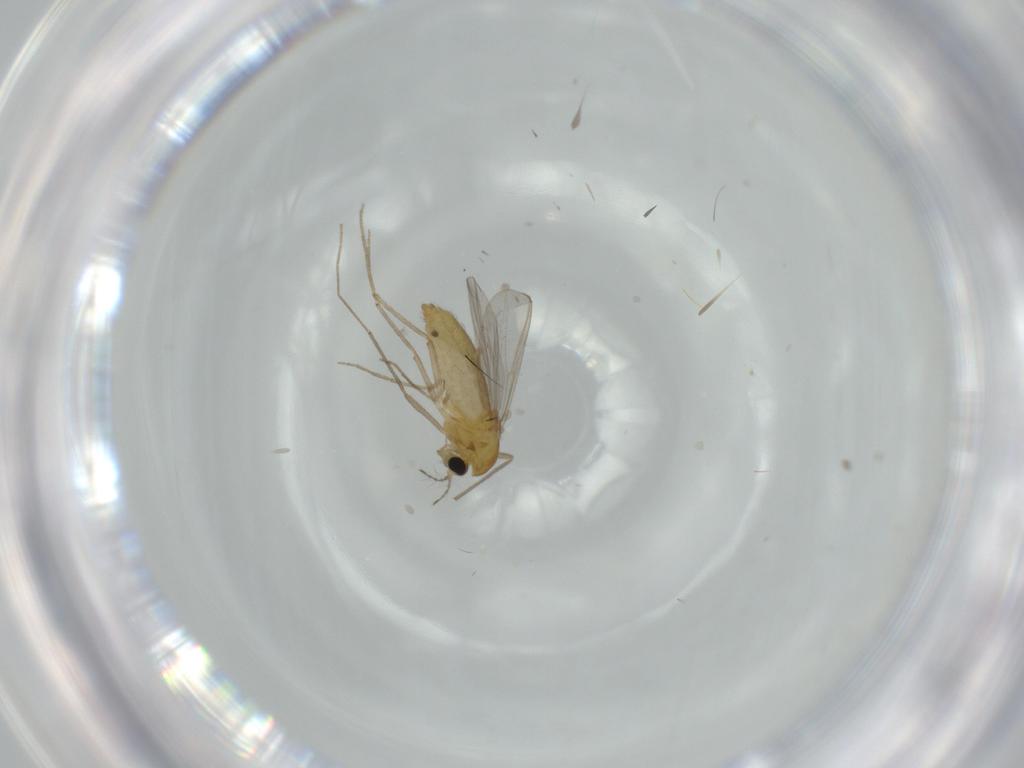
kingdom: Animalia
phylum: Arthropoda
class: Insecta
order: Diptera
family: Chironomidae
